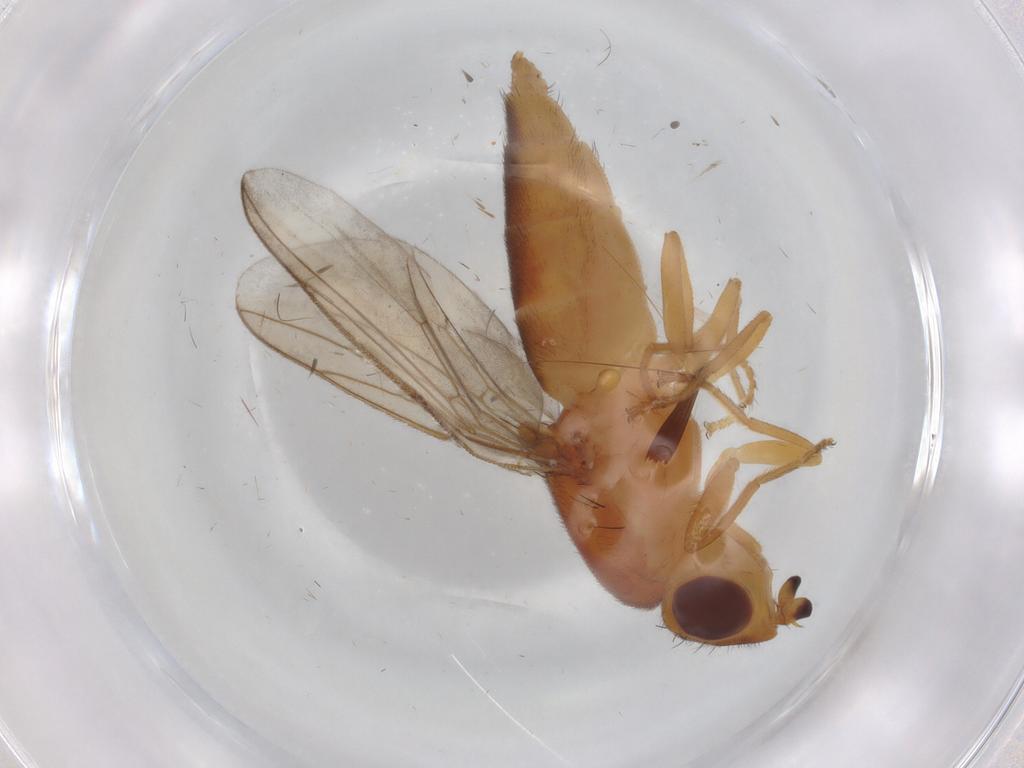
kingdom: Animalia
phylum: Arthropoda
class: Insecta
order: Diptera
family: Chloropidae
